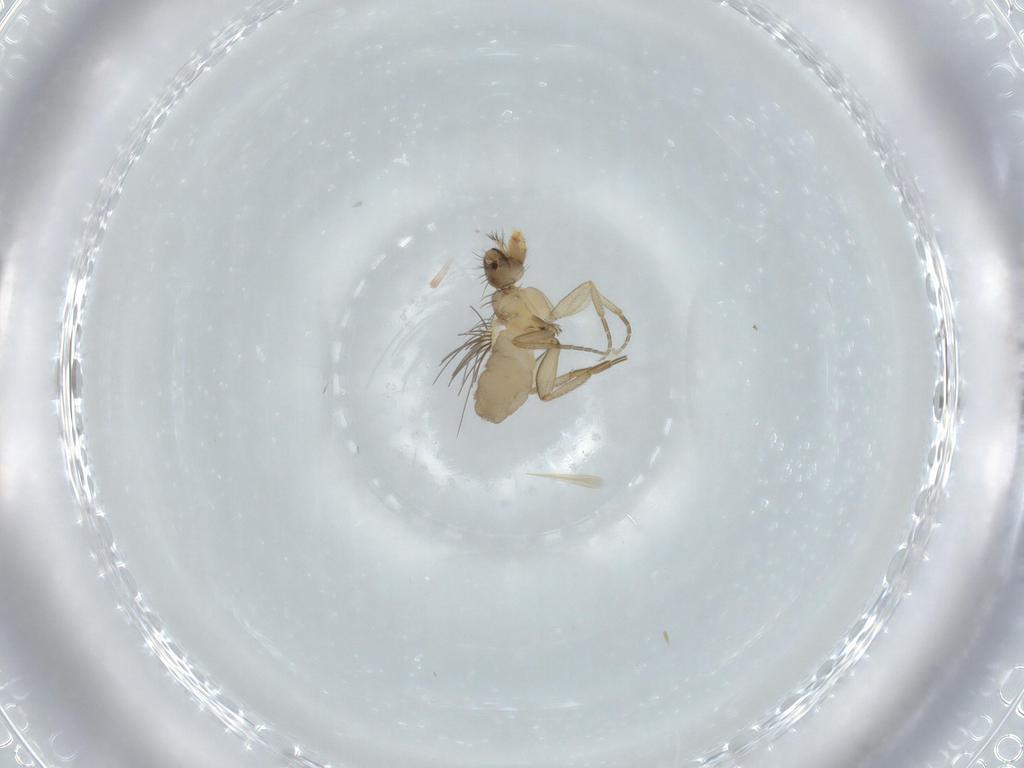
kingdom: Animalia
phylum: Arthropoda
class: Insecta
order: Diptera
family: Phoridae
